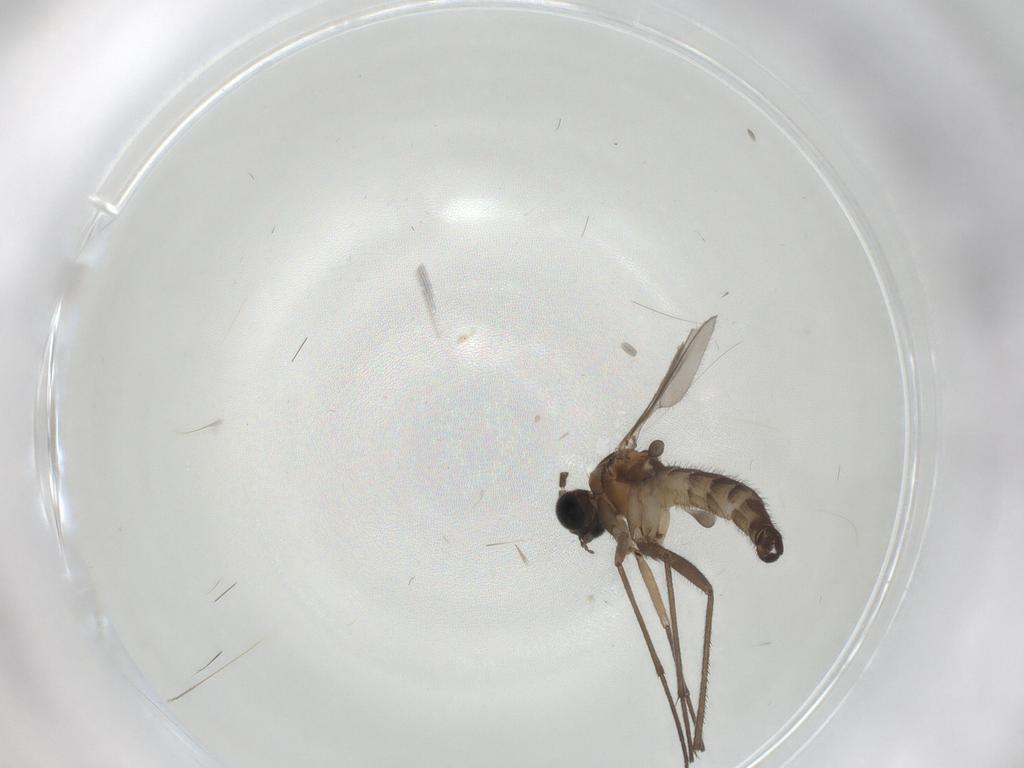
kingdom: Animalia
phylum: Arthropoda
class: Insecta
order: Diptera
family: Sciaridae
